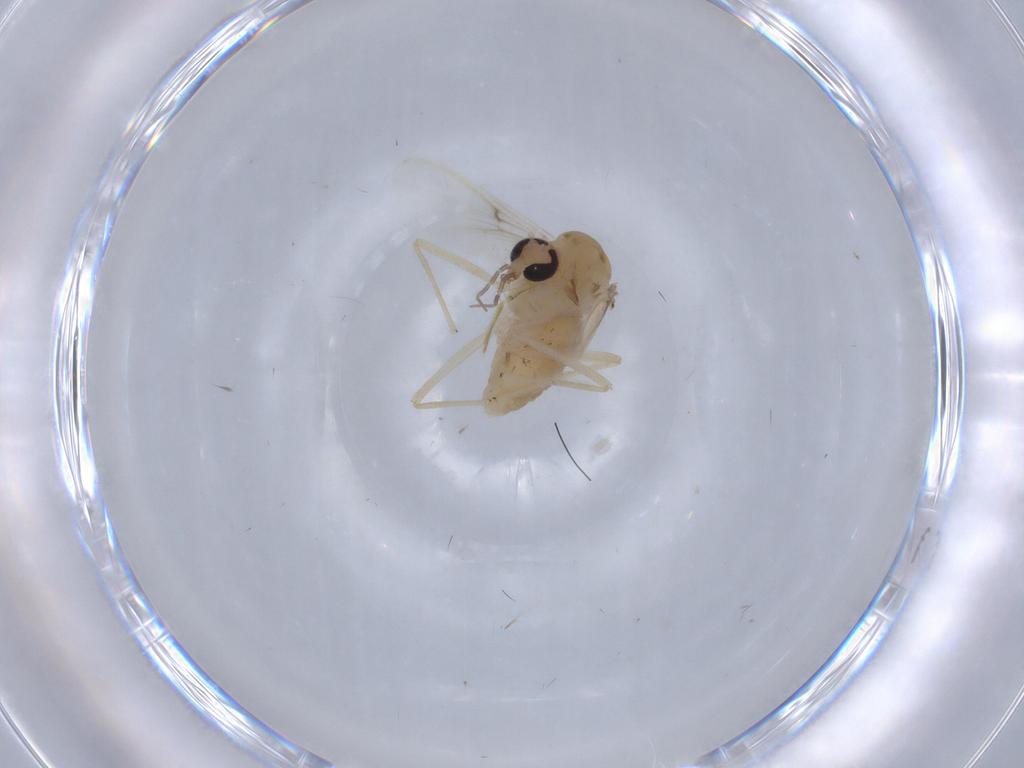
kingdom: Animalia
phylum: Arthropoda
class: Insecta
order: Diptera
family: Chironomidae
